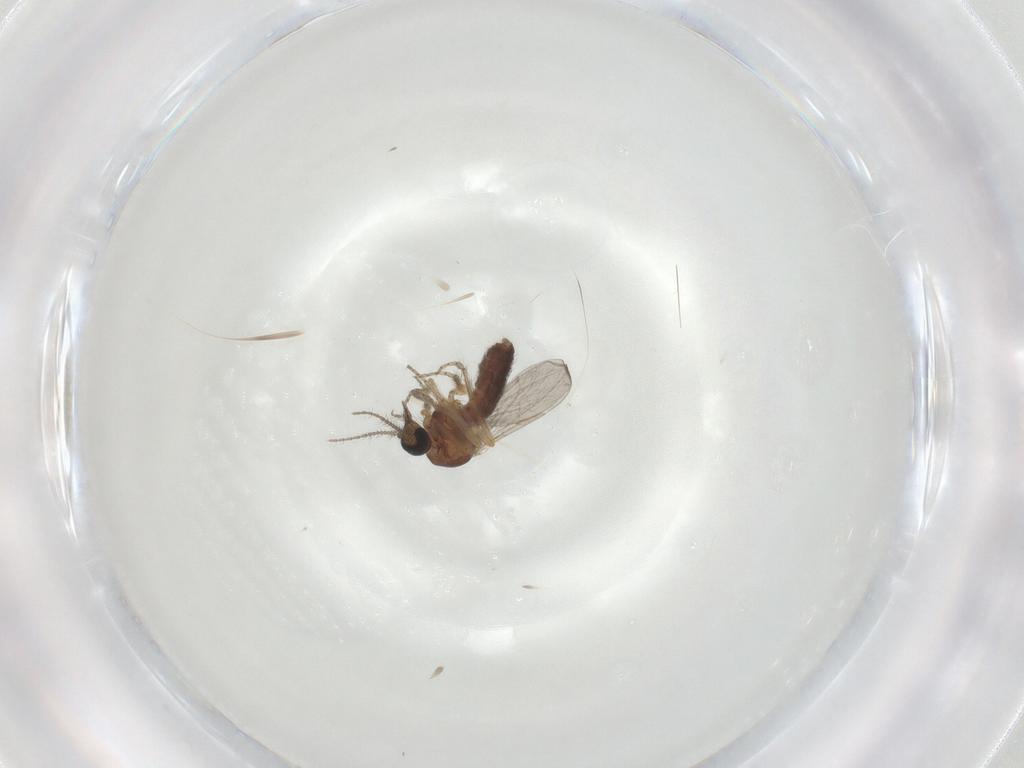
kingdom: Animalia
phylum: Arthropoda
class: Insecta
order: Diptera
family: Ceratopogonidae
